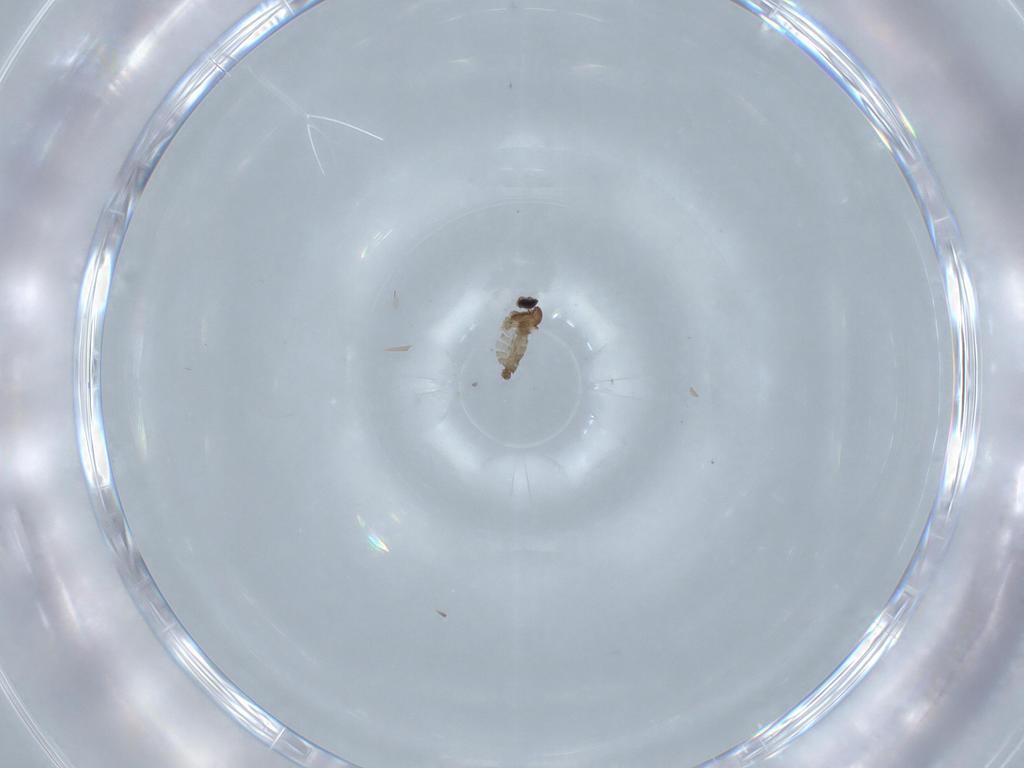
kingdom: Animalia
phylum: Arthropoda
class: Insecta
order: Diptera
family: Cecidomyiidae
